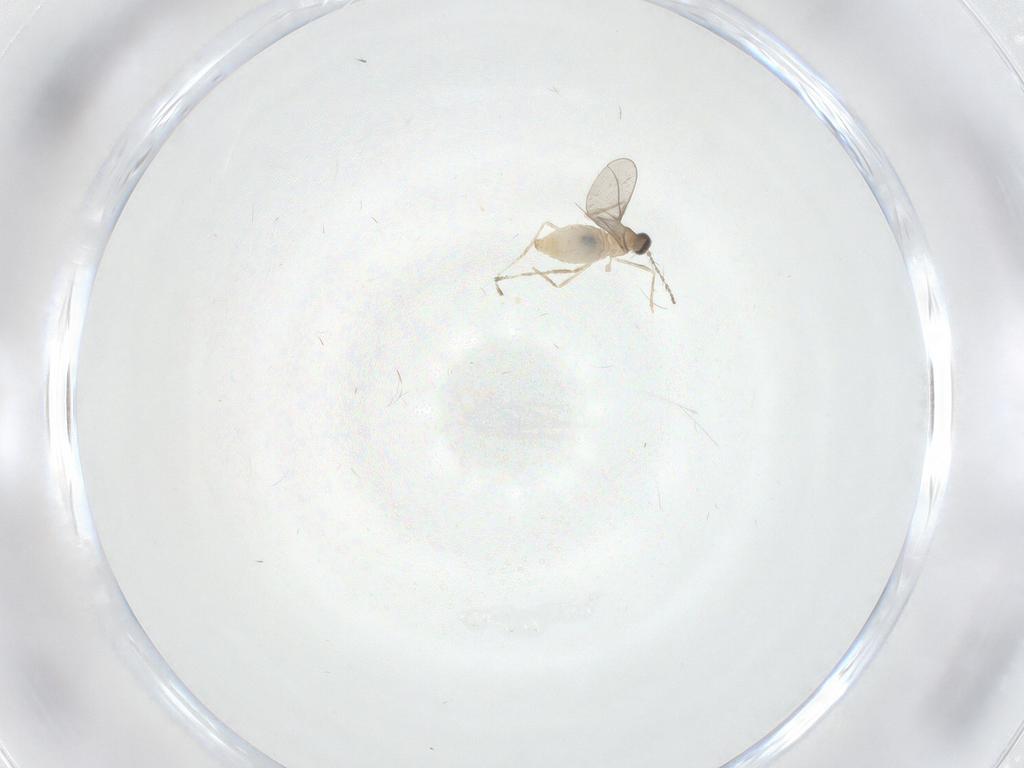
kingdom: Animalia
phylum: Arthropoda
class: Insecta
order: Diptera
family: Cecidomyiidae
